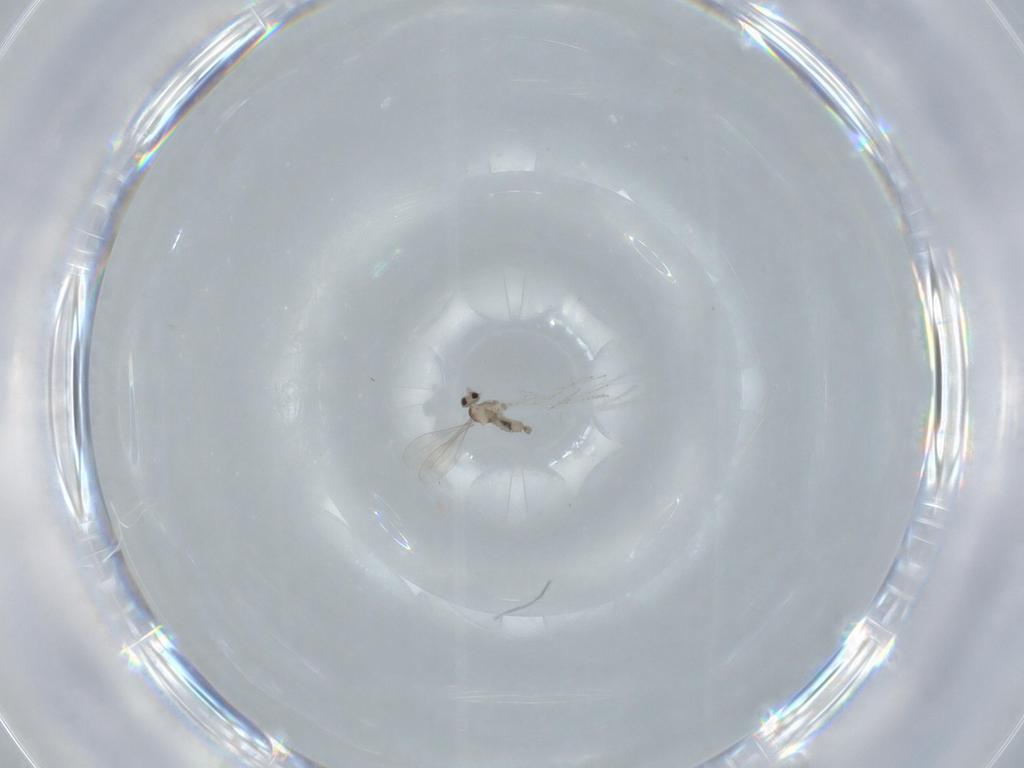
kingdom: Animalia
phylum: Arthropoda
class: Insecta
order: Diptera
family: Cecidomyiidae
